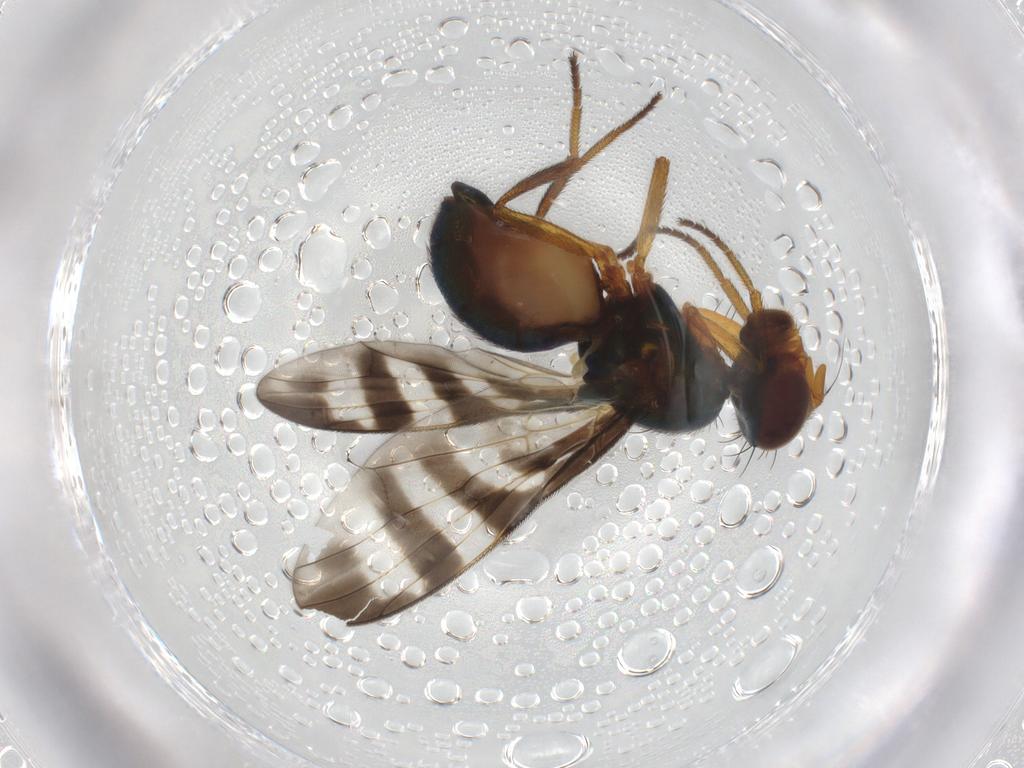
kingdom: Animalia
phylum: Arthropoda
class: Insecta
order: Diptera
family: Platystomatidae
